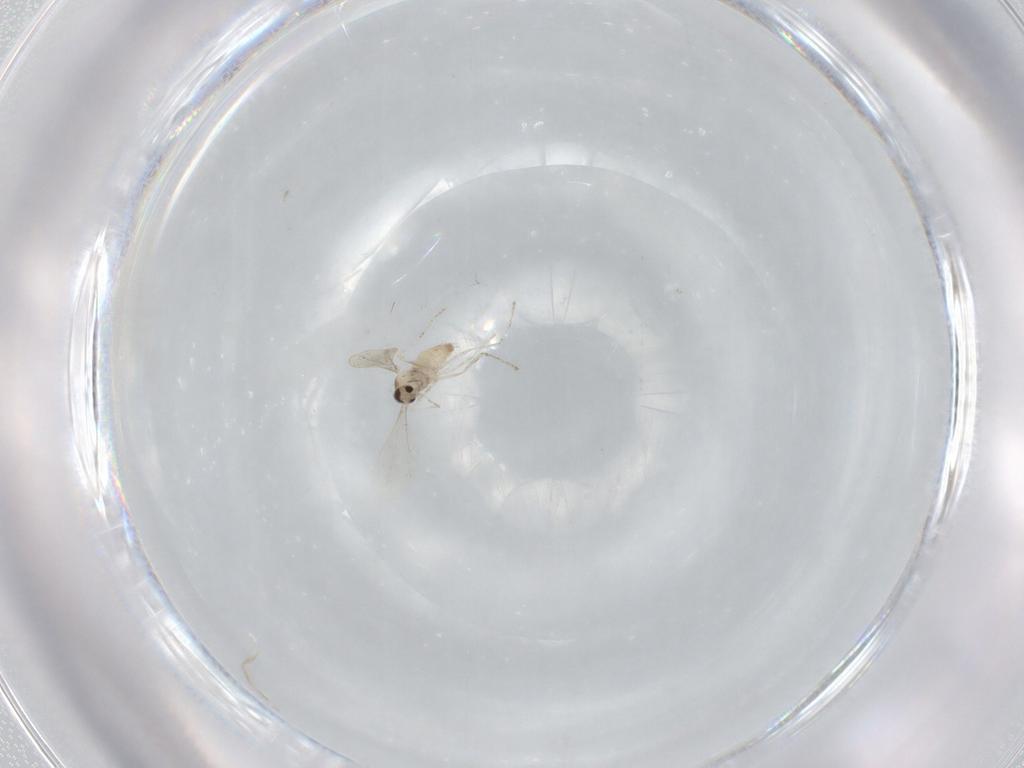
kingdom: Animalia
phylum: Arthropoda
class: Insecta
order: Diptera
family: Cecidomyiidae
